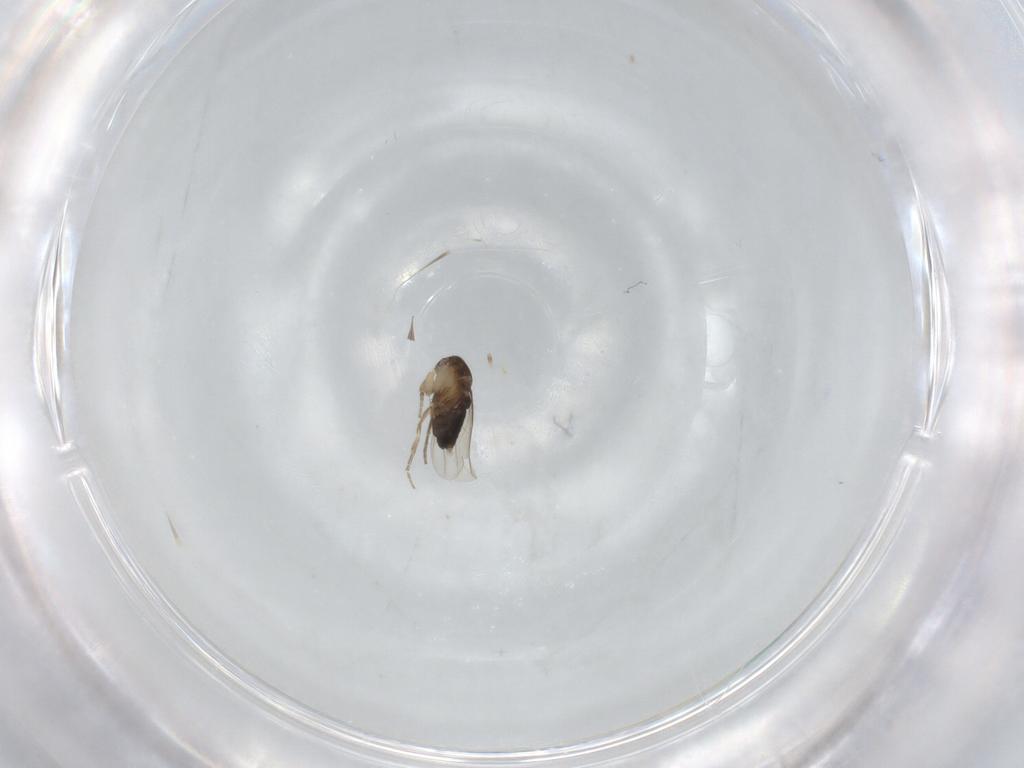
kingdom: Animalia
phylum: Arthropoda
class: Insecta
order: Diptera
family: Phoridae
